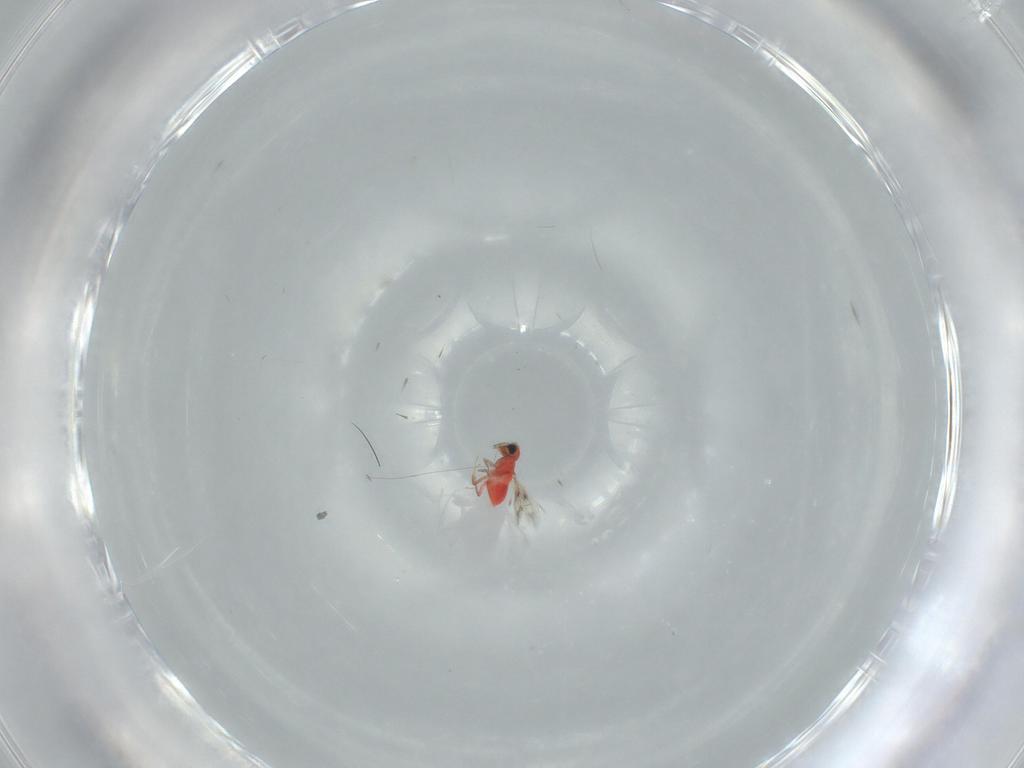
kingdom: Animalia
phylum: Arthropoda
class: Insecta
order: Hymenoptera
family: Trichogrammatidae
